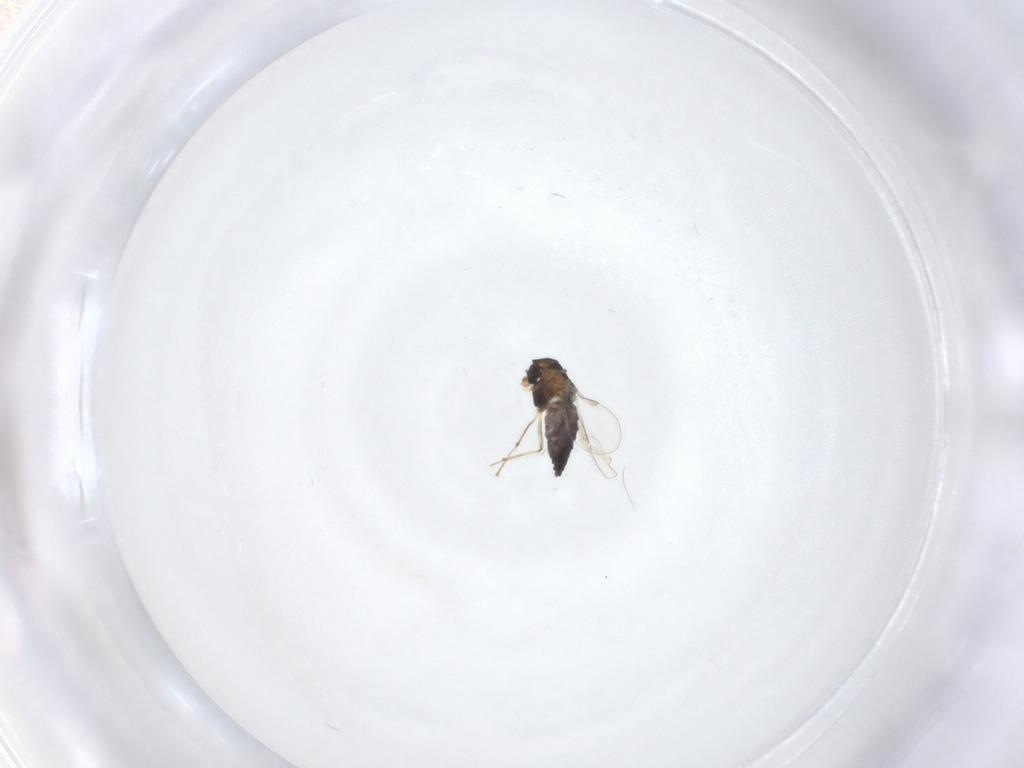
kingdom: Animalia
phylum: Arthropoda
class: Insecta
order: Diptera
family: Chironomidae
